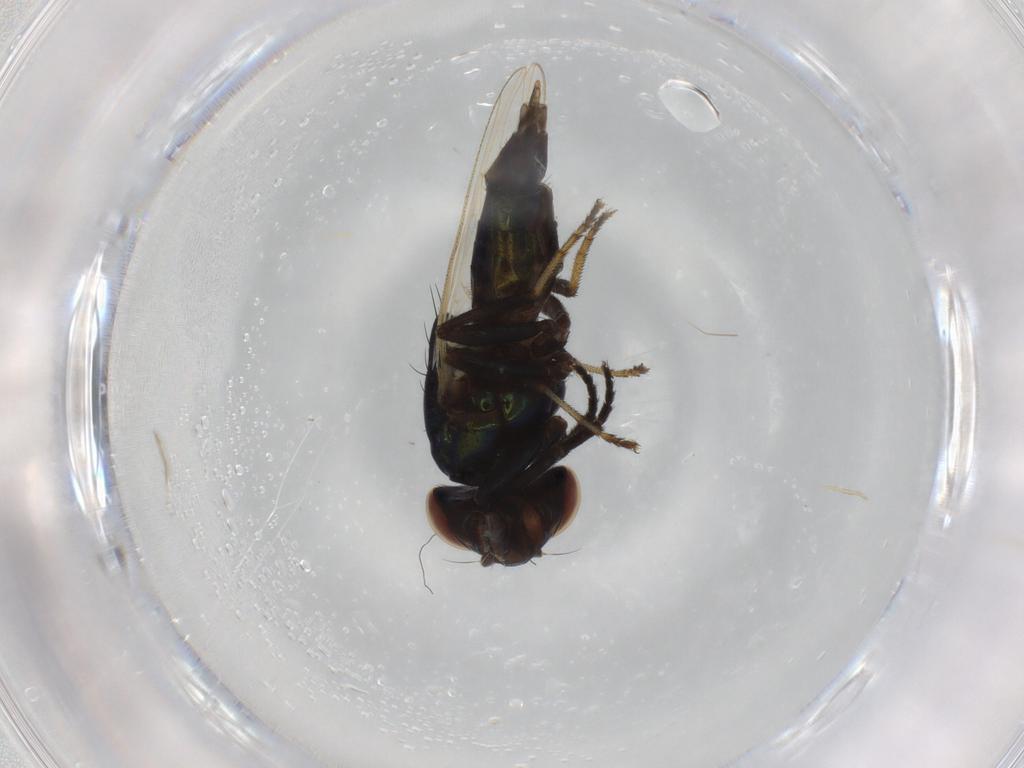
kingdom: Animalia
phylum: Arthropoda
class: Insecta
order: Diptera
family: Ulidiidae
